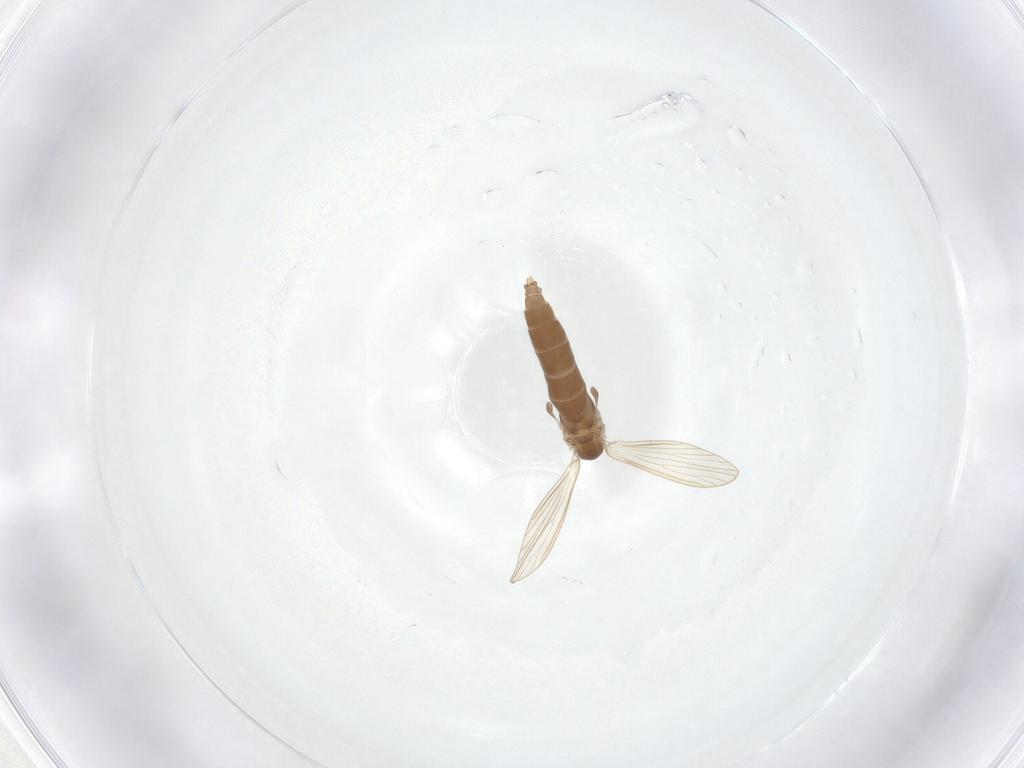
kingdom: Animalia
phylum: Arthropoda
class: Insecta
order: Diptera
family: Psychodidae
